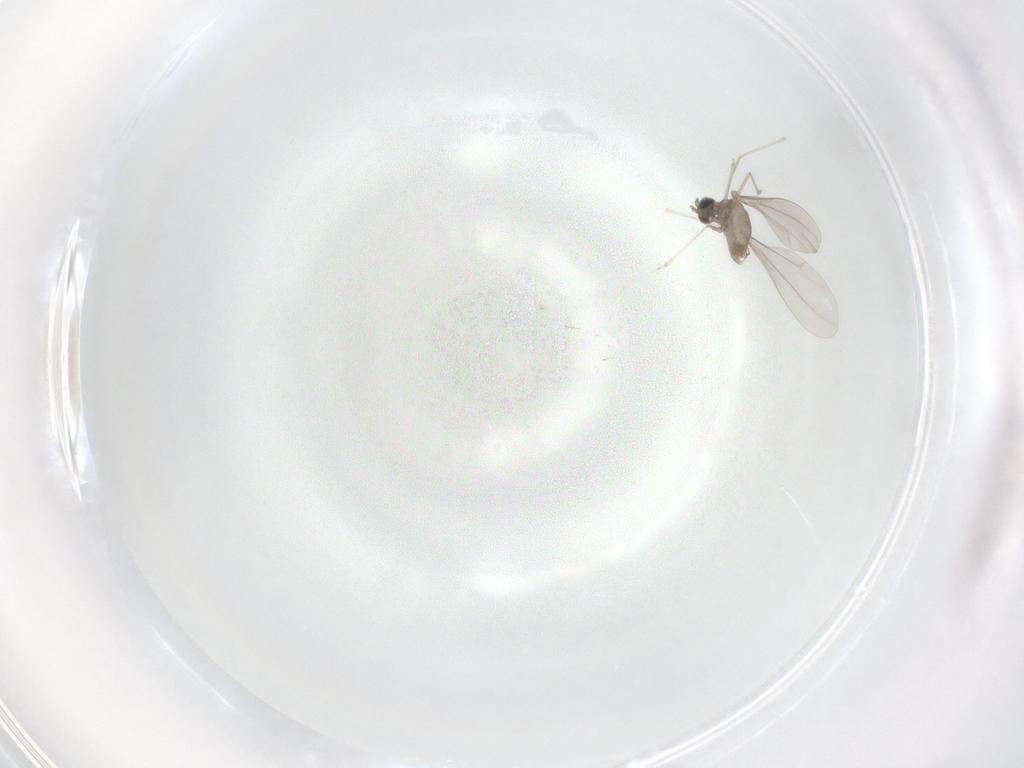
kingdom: Animalia
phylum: Arthropoda
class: Insecta
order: Diptera
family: Cecidomyiidae
